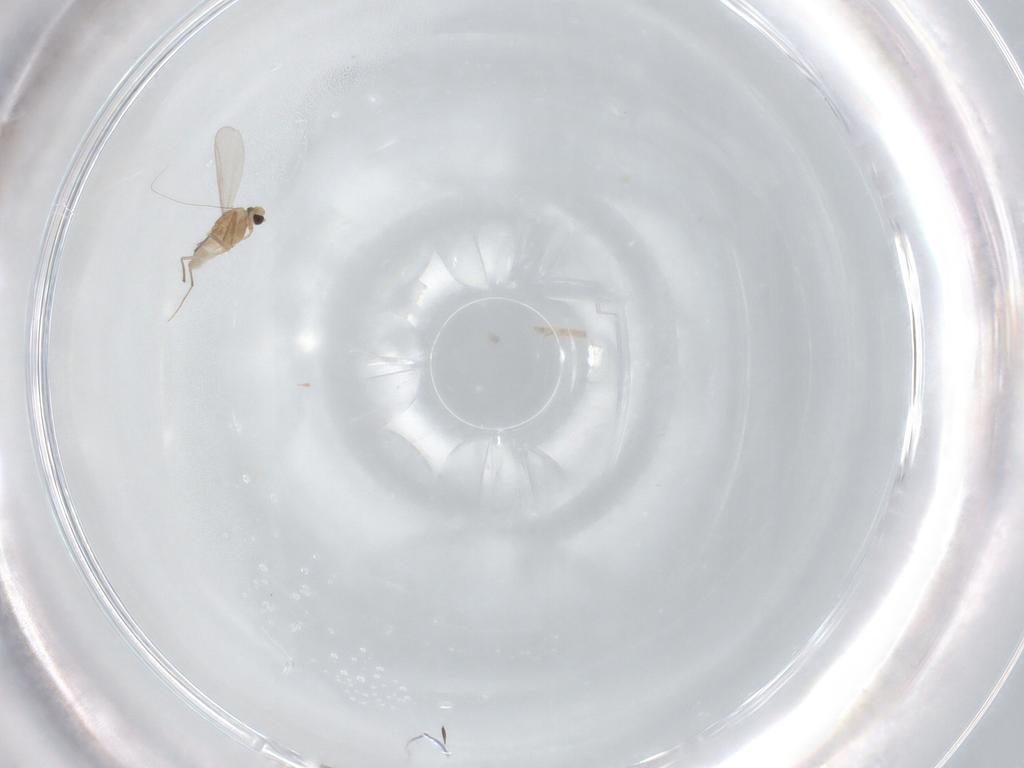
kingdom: Animalia
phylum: Arthropoda
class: Insecta
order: Diptera
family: Chironomidae
